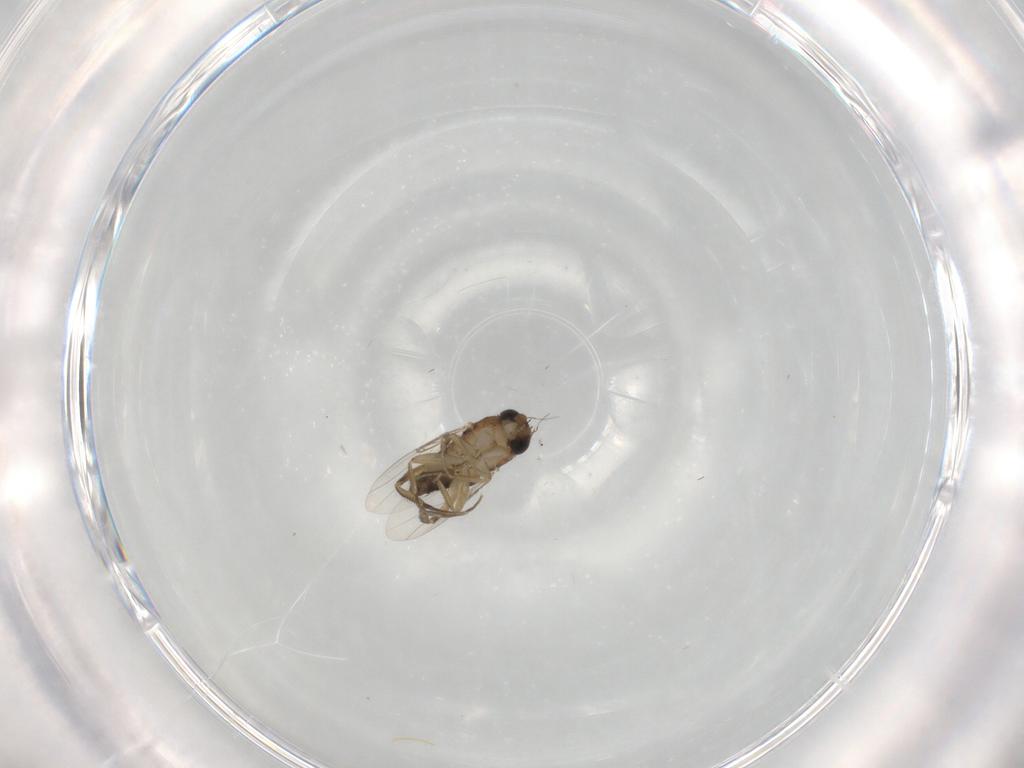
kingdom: Animalia
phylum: Arthropoda
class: Insecta
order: Diptera
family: Phoridae
